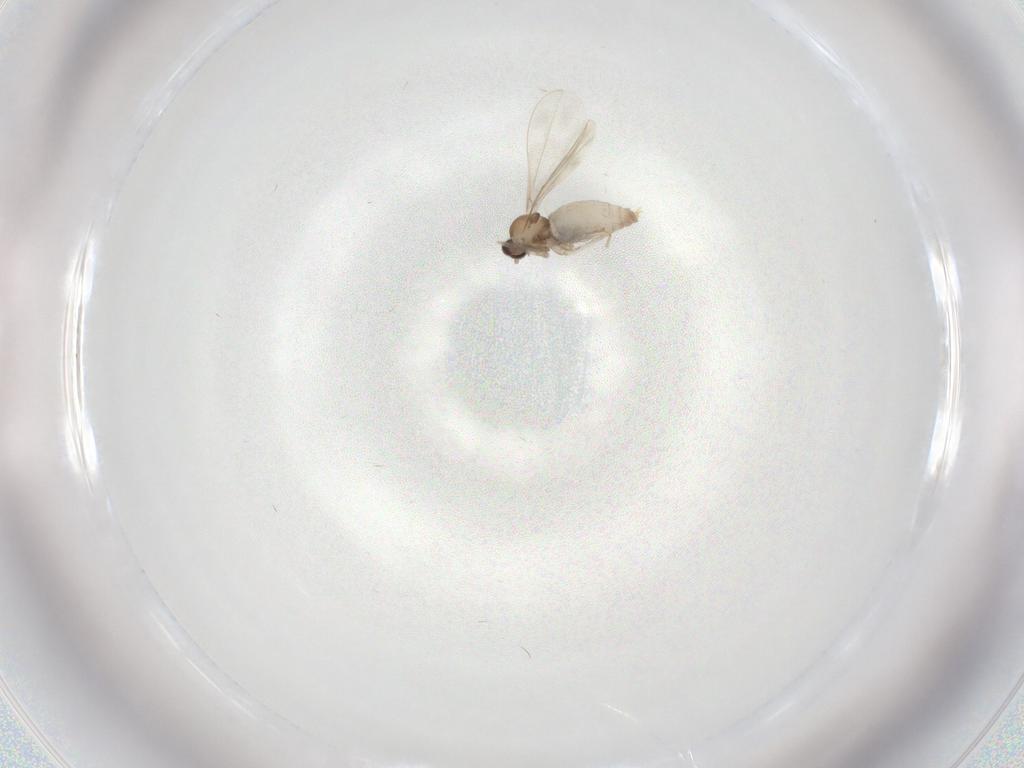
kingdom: Animalia
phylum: Arthropoda
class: Insecta
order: Diptera
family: Cecidomyiidae
